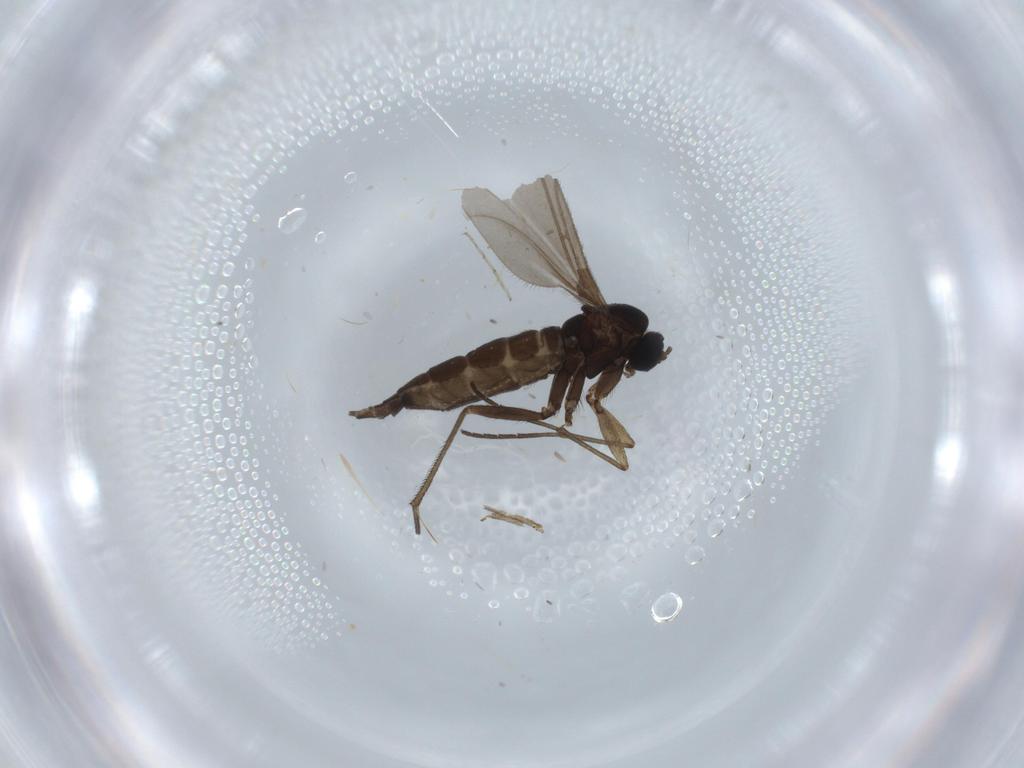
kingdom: Animalia
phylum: Arthropoda
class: Insecta
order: Diptera
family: Sciaridae
